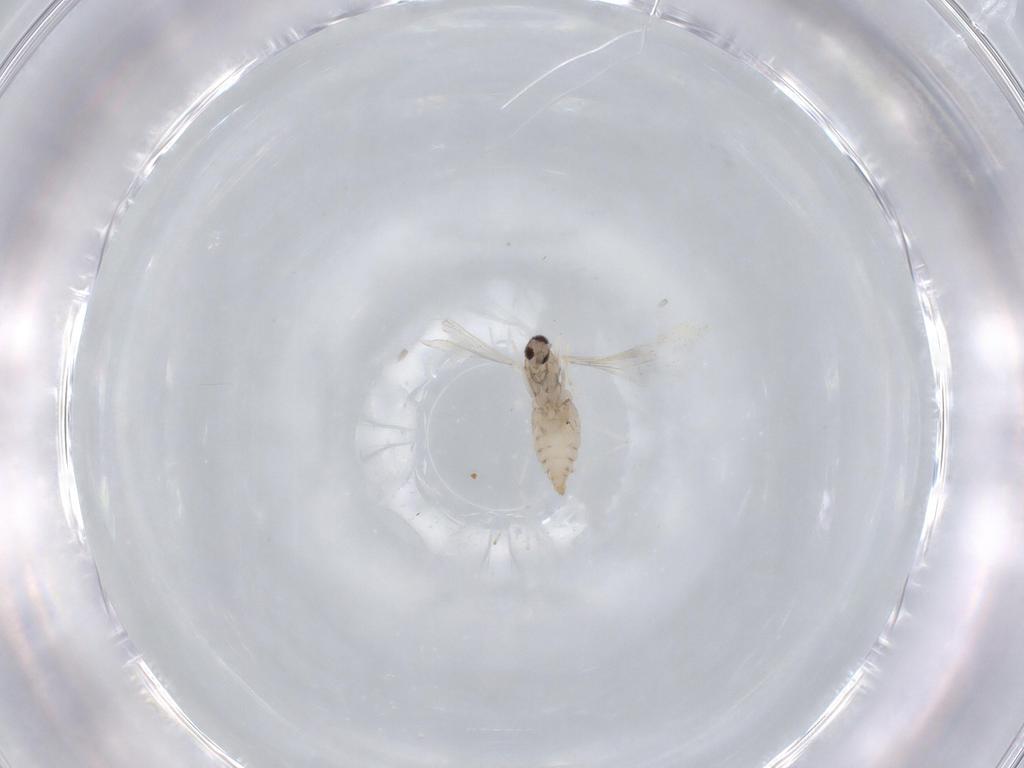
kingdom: Animalia
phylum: Arthropoda
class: Insecta
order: Diptera
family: Cecidomyiidae
